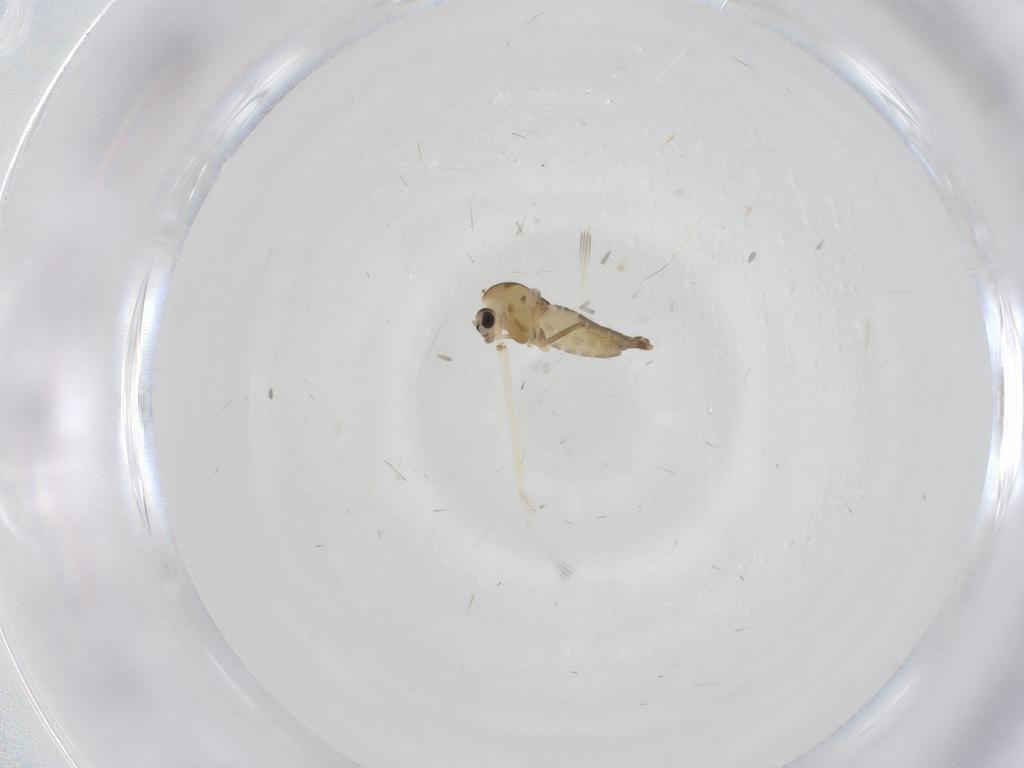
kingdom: Animalia
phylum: Arthropoda
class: Insecta
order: Diptera
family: Chironomidae
